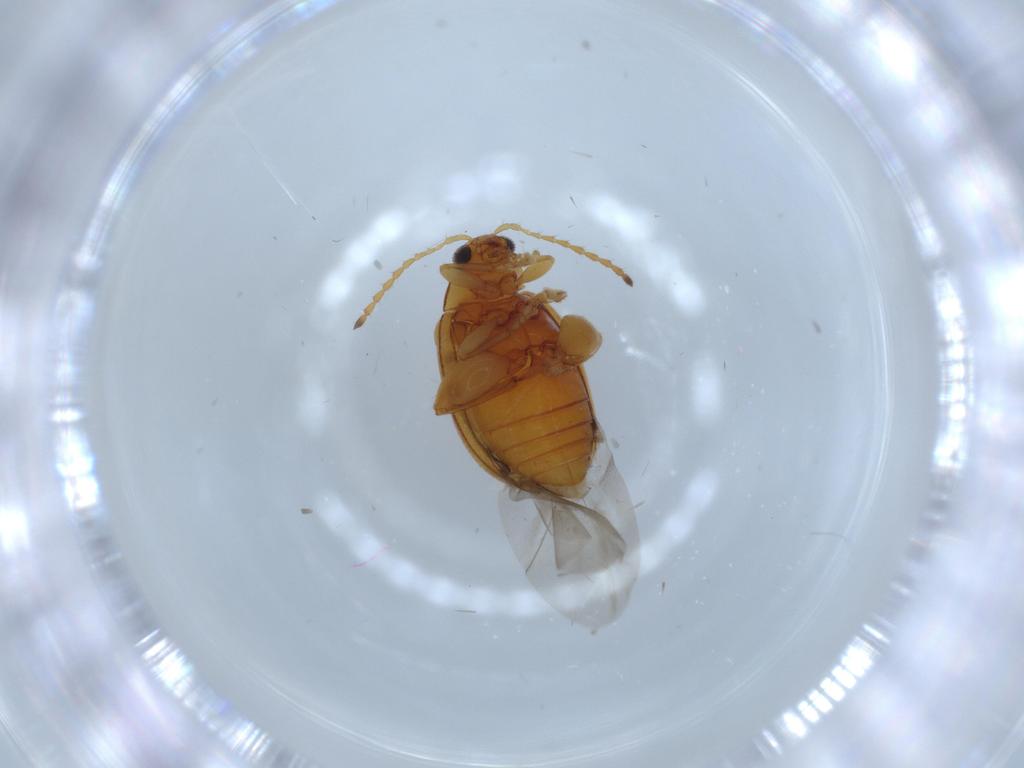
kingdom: Animalia
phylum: Arthropoda
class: Insecta
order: Coleoptera
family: Chrysomelidae
